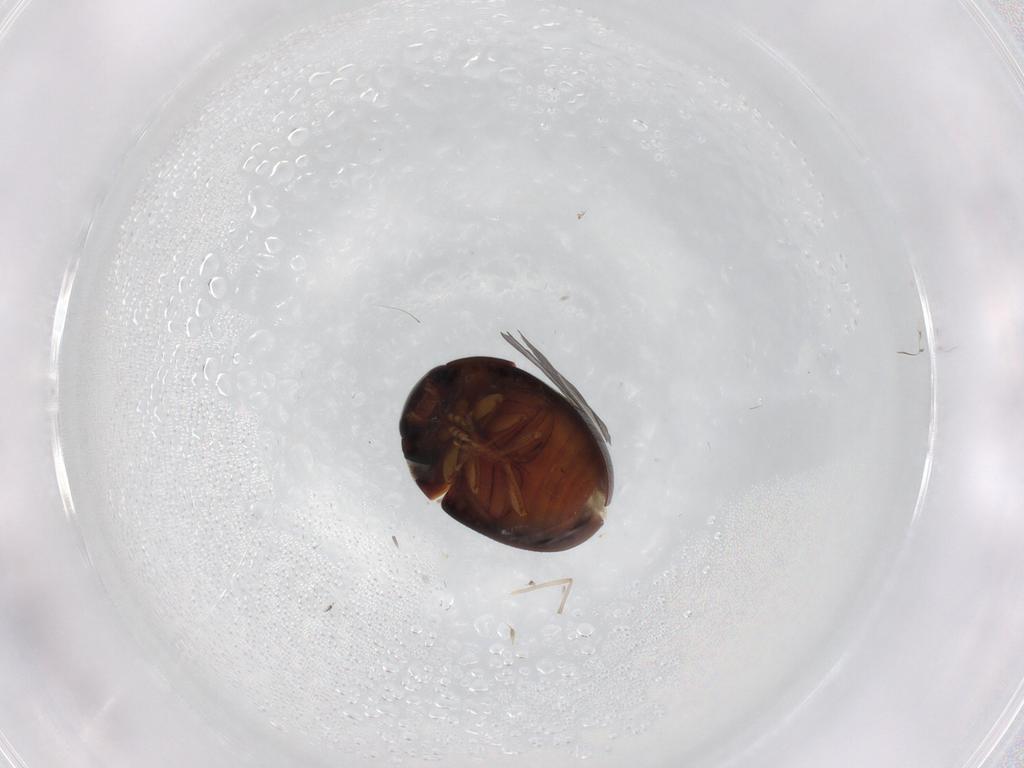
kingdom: Animalia
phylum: Arthropoda
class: Insecta
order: Coleoptera
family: Phalacridae
